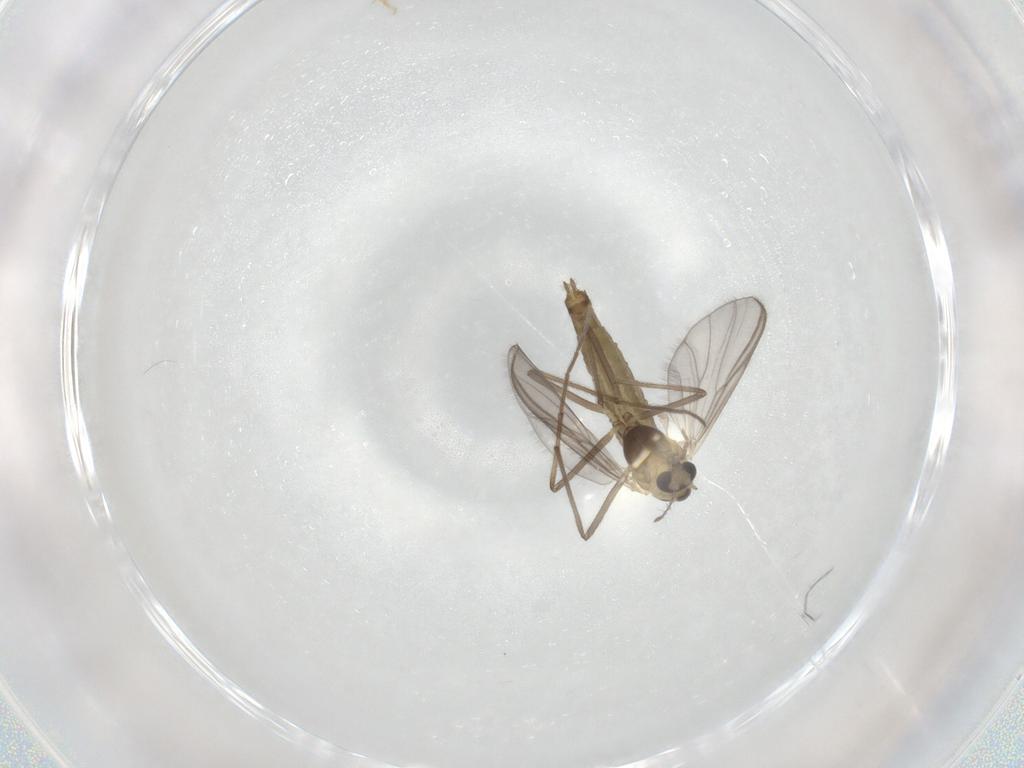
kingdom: Animalia
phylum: Arthropoda
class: Insecta
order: Diptera
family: Chironomidae
